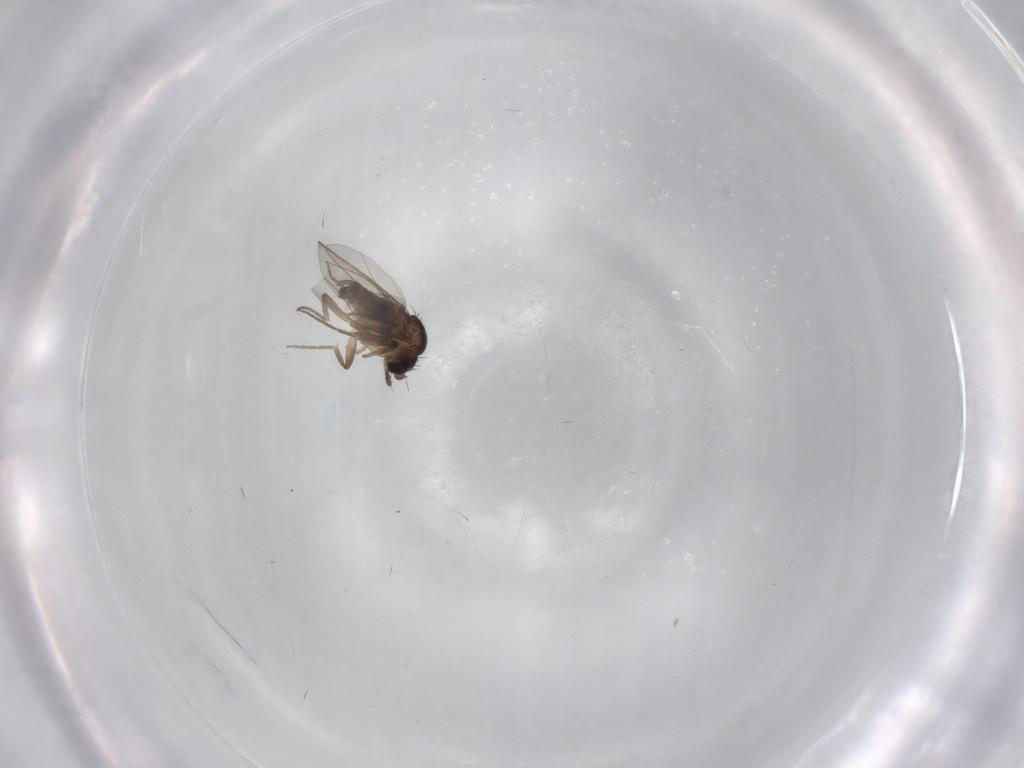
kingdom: Animalia
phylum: Arthropoda
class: Insecta
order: Diptera
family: Phoridae
